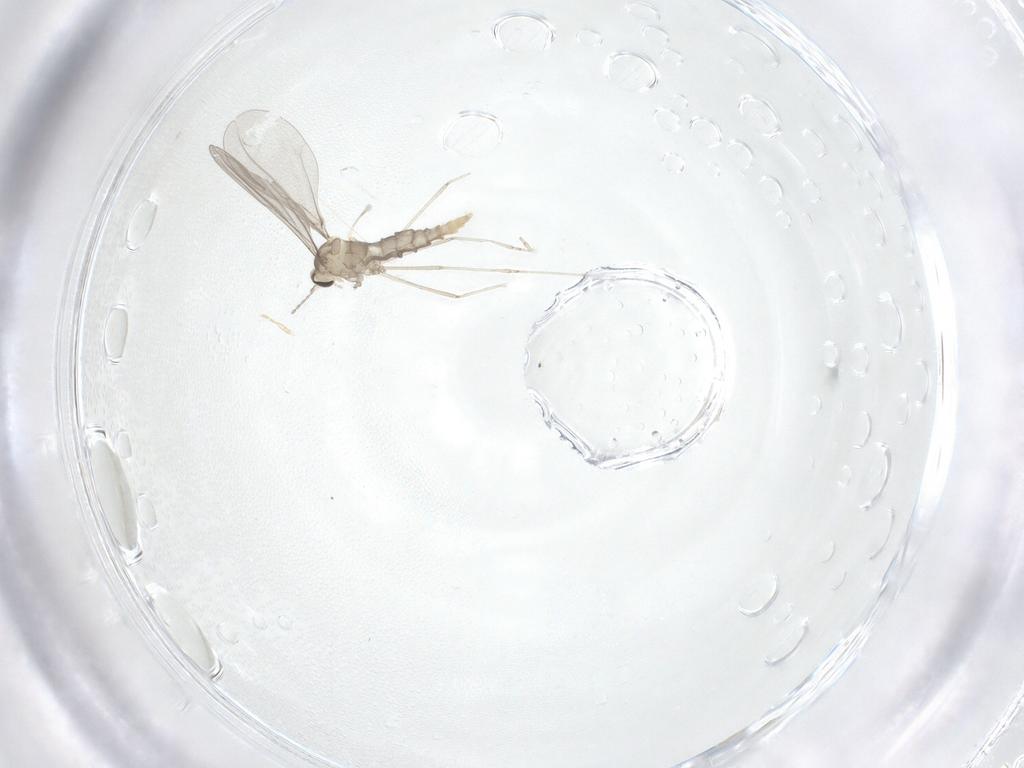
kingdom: Animalia
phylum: Arthropoda
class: Insecta
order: Diptera
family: Cecidomyiidae
